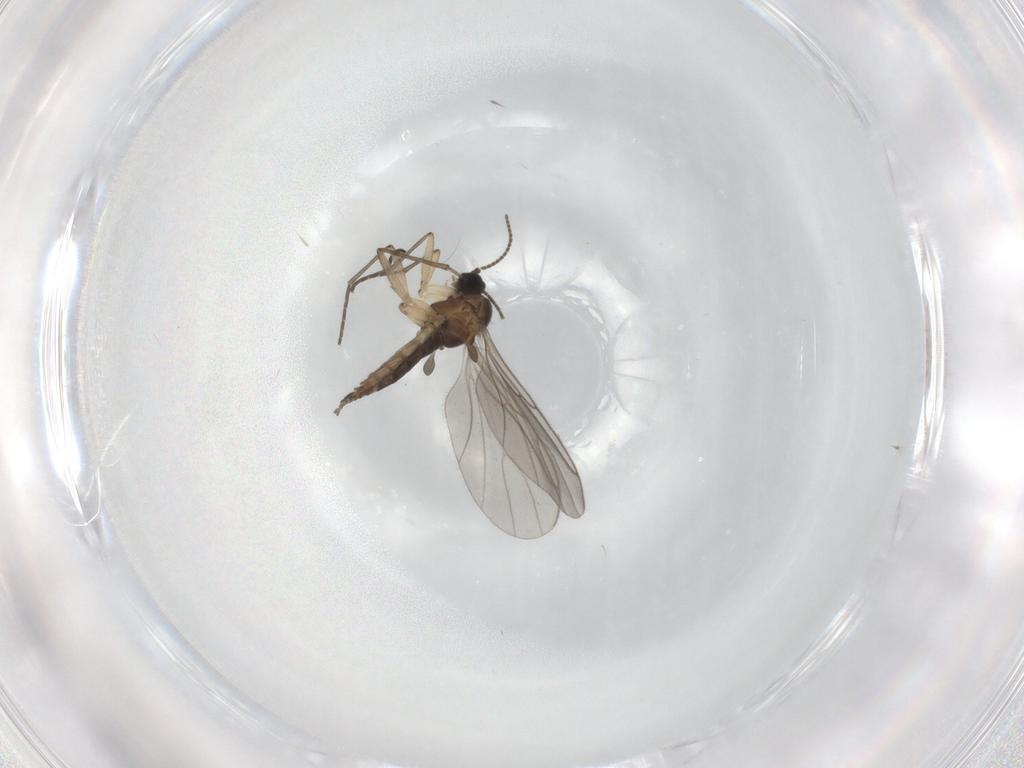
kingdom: Animalia
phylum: Arthropoda
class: Insecta
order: Diptera
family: Sciaridae
